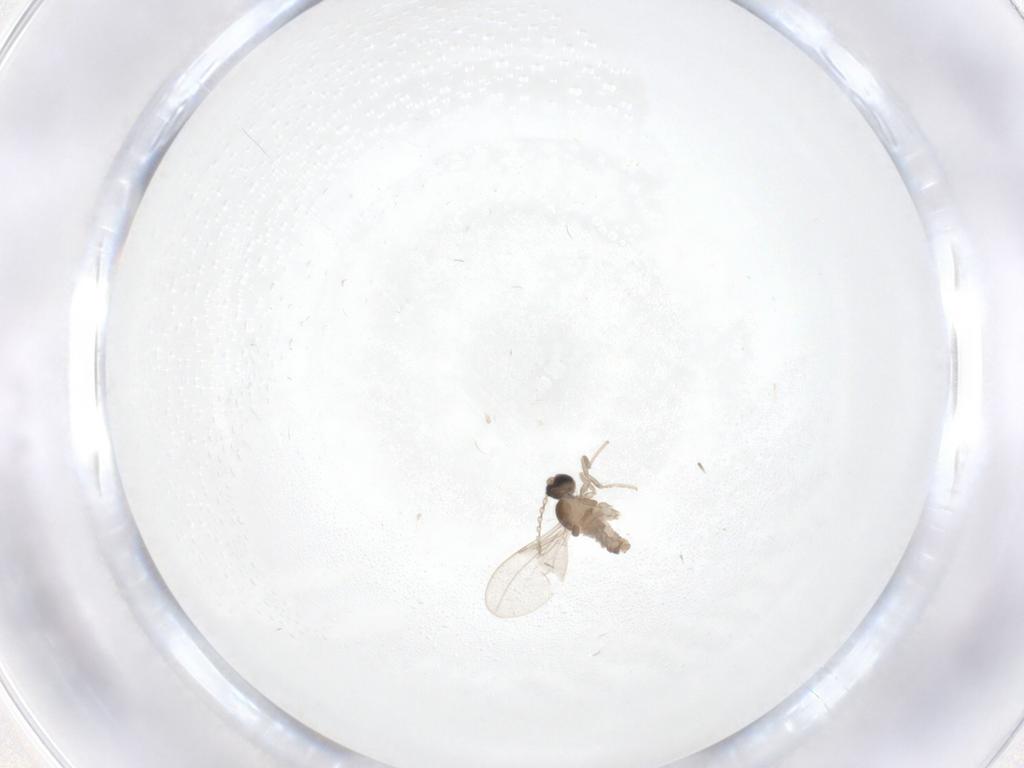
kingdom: Animalia
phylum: Arthropoda
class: Insecta
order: Diptera
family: Cecidomyiidae
